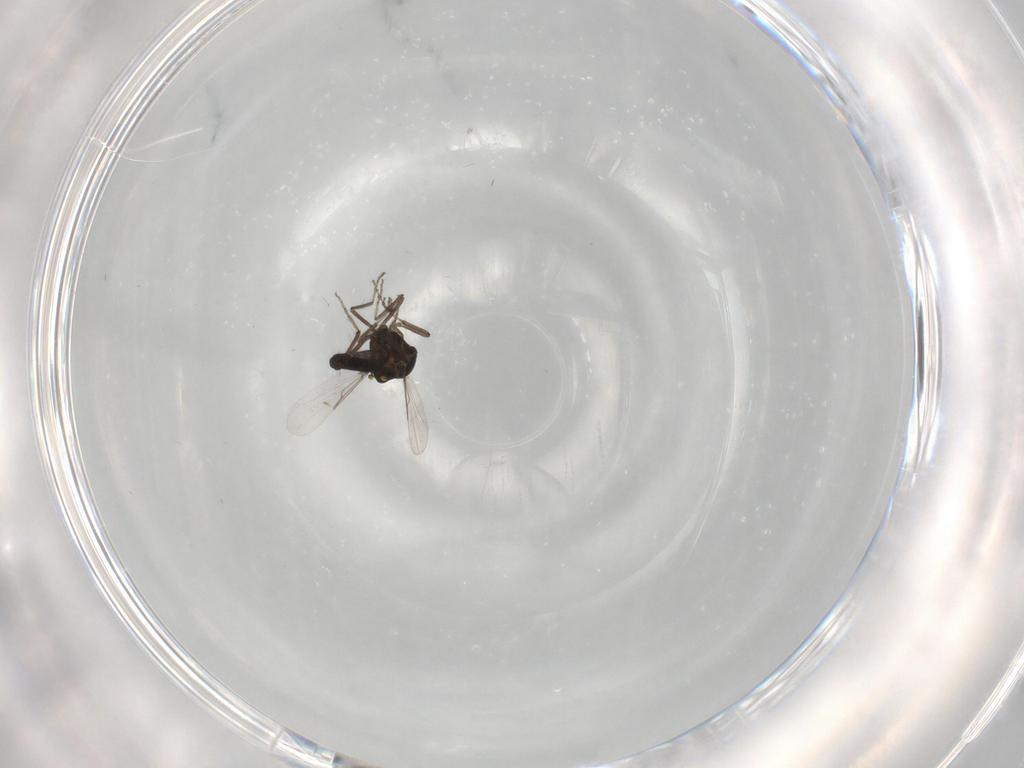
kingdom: Animalia
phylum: Arthropoda
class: Insecta
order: Diptera
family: Ceratopogonidae
